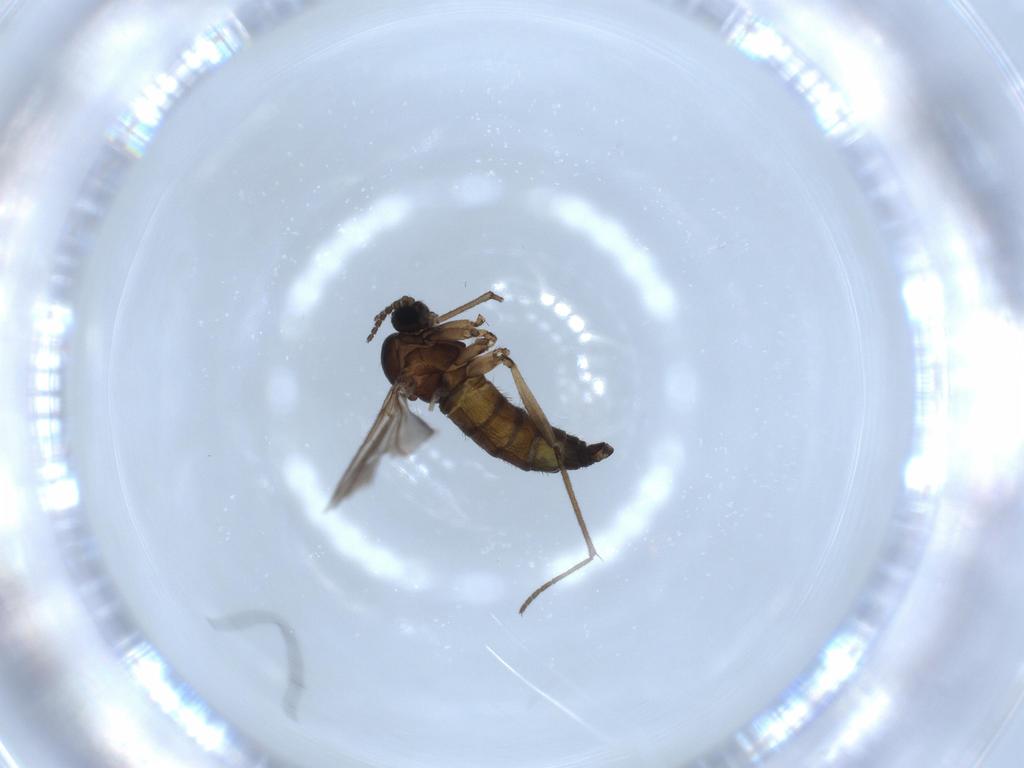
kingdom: Animalia
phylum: Arthropoda
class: Insecta
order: Diptera
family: Sciaridae
